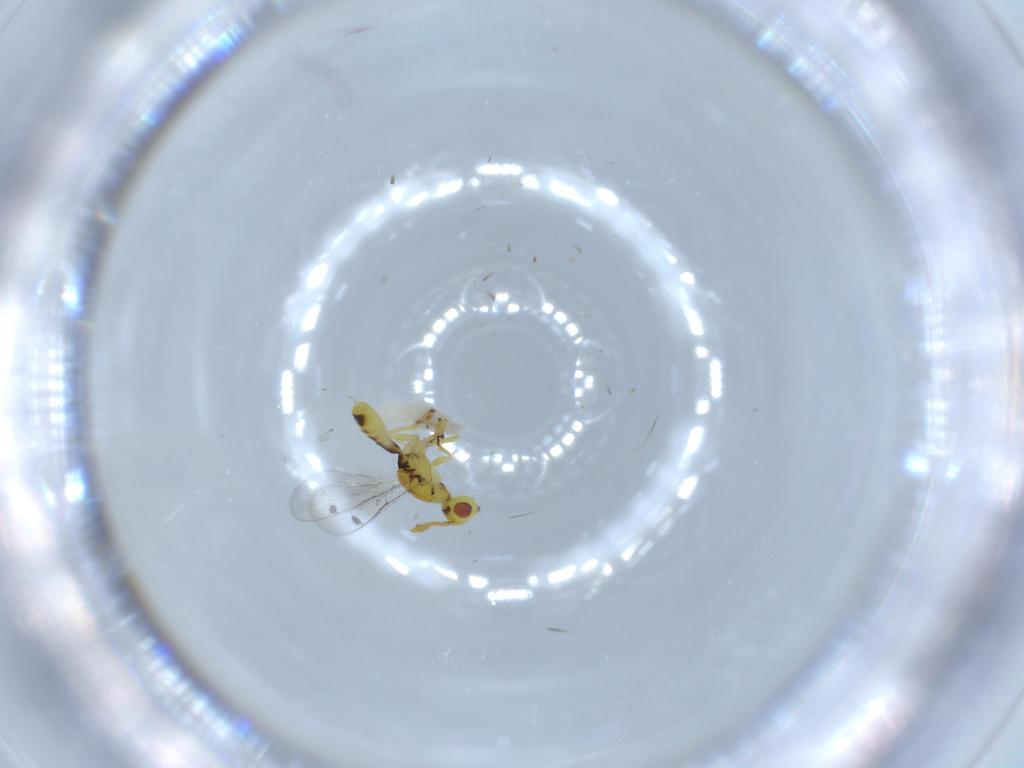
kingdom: Animalia
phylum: Arthropoda
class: Insecta
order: Hymenoptera
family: Megastigmidae
